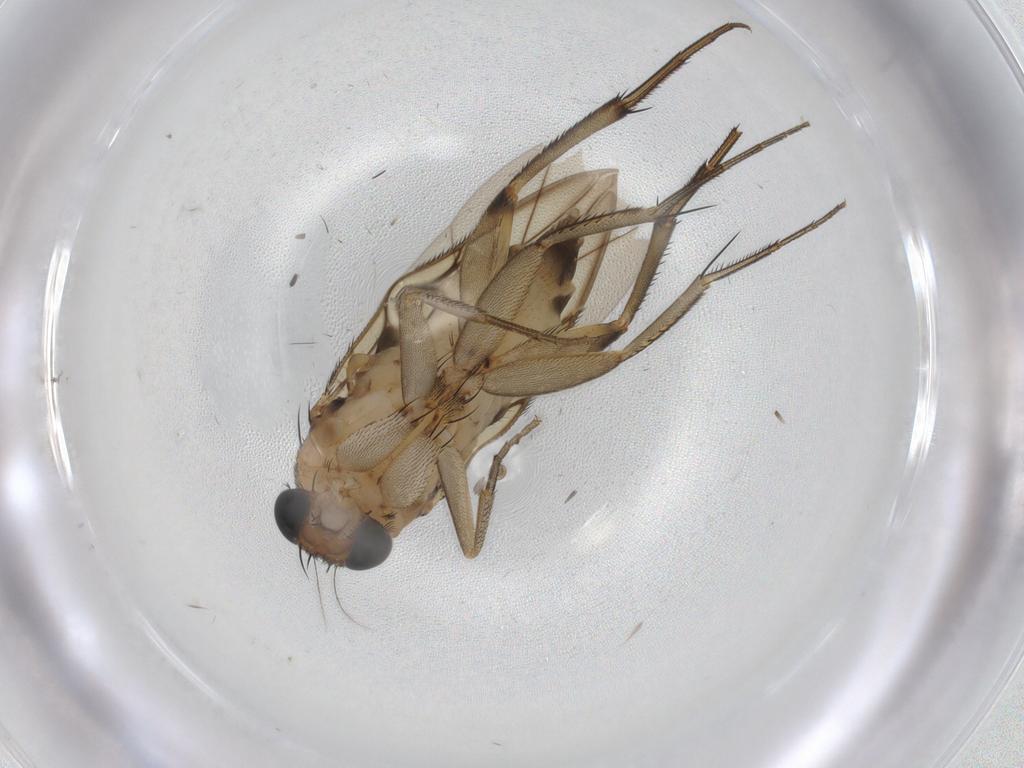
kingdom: Animalia
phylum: Arthropoda
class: Insecta
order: Diptera
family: Phoridae
